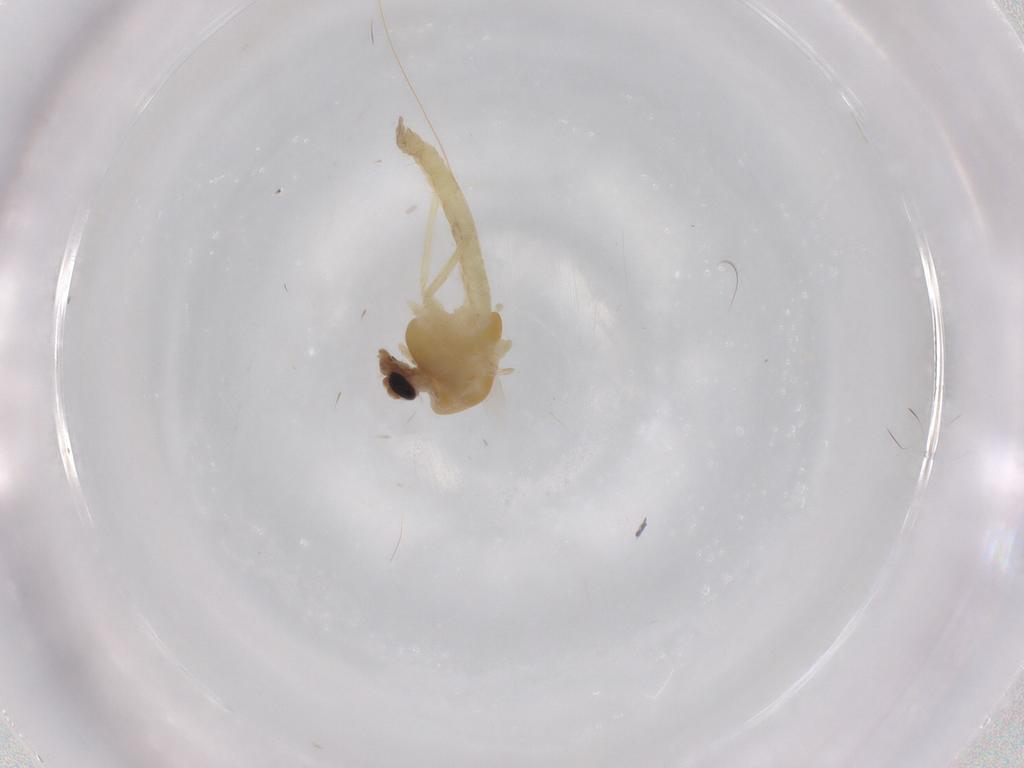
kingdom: Animalia
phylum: Arthropoda
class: Insecta
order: Diptera
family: Chironomidae
